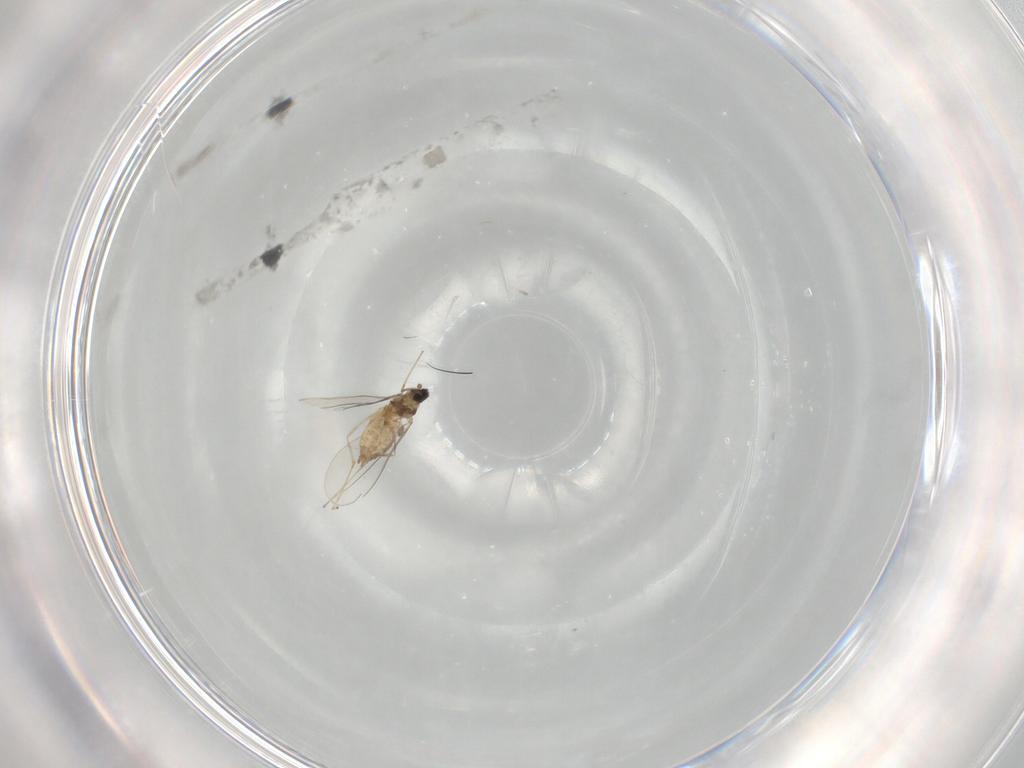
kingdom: Animalia
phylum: Arthropoda
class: Insecta
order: Diptera
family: Cecidomyiidae
